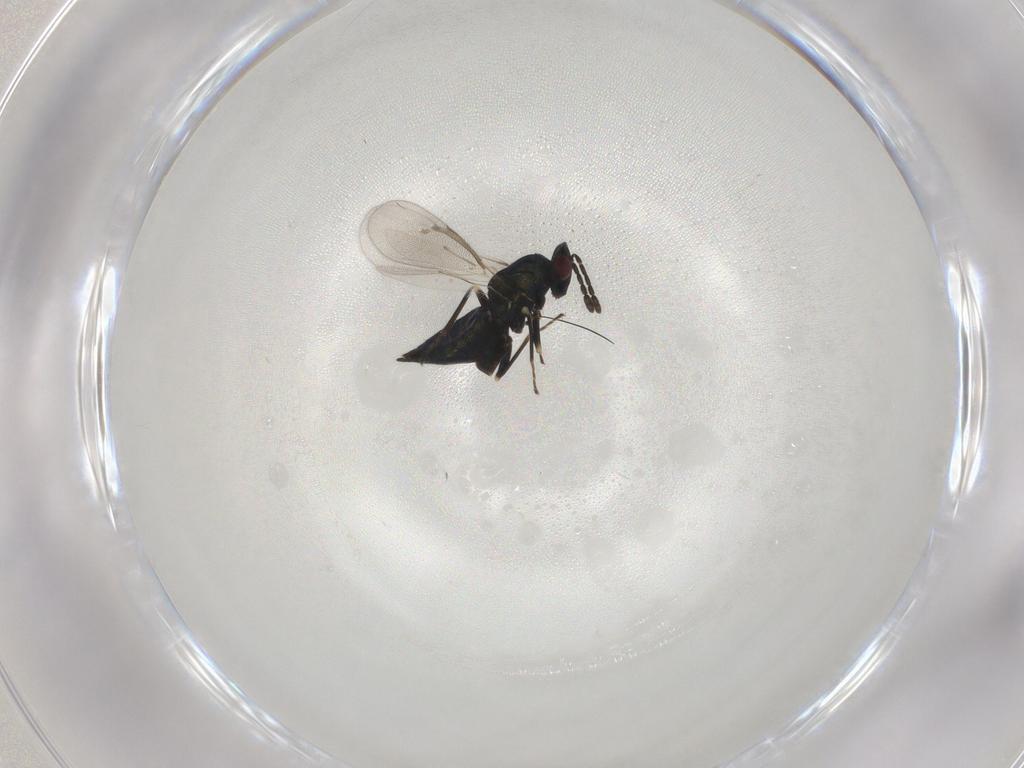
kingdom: Animalia
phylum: Arthropoda
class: Insecta
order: Hymenoptera
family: Eulophidae
